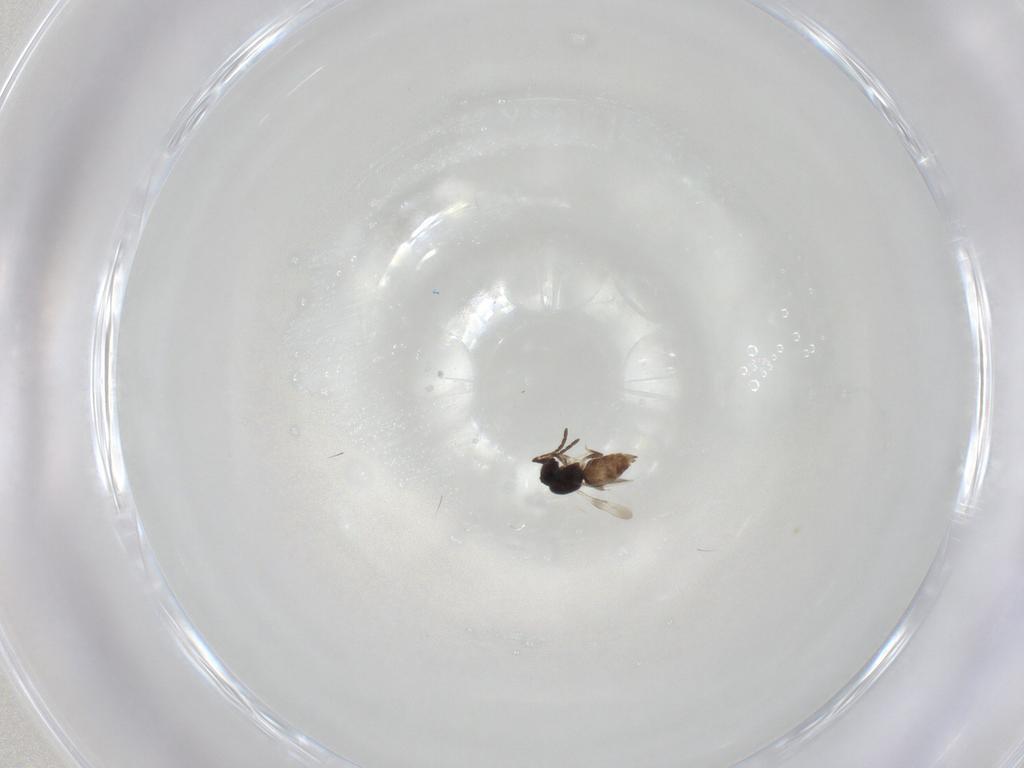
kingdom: Animalia
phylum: Arthropoda
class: Insecta
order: Hymenoptera
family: Ceraphronidae
